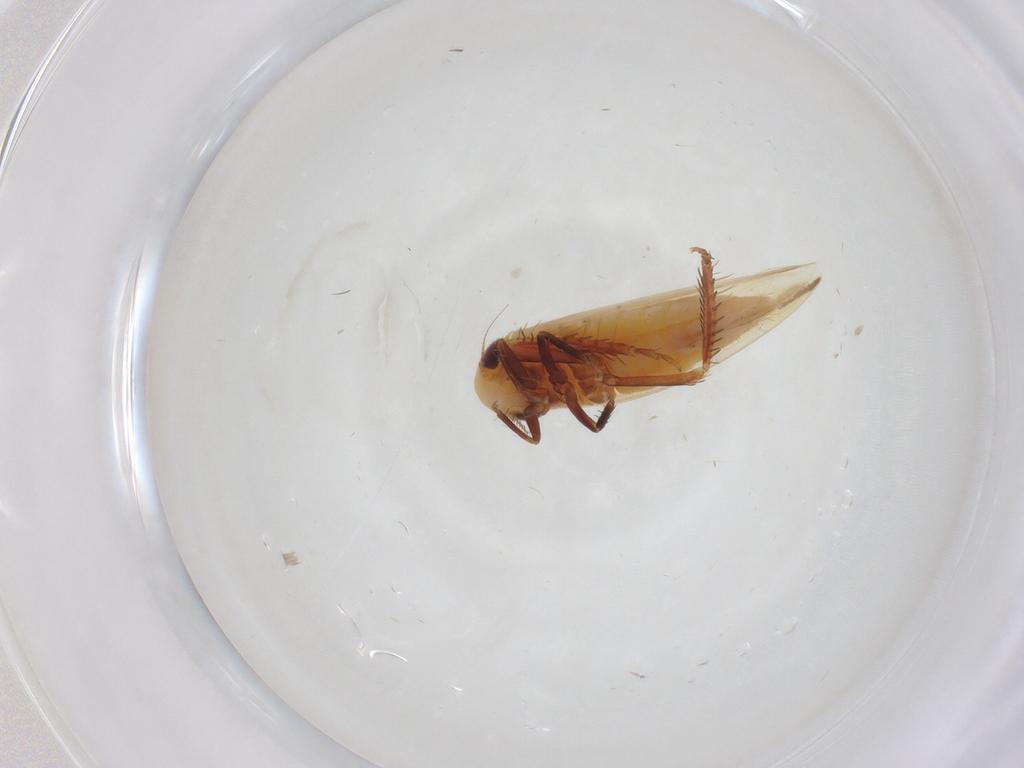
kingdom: Animalia
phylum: Arthropoda
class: Insecta
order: Hemiptera
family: Cicadellidae
